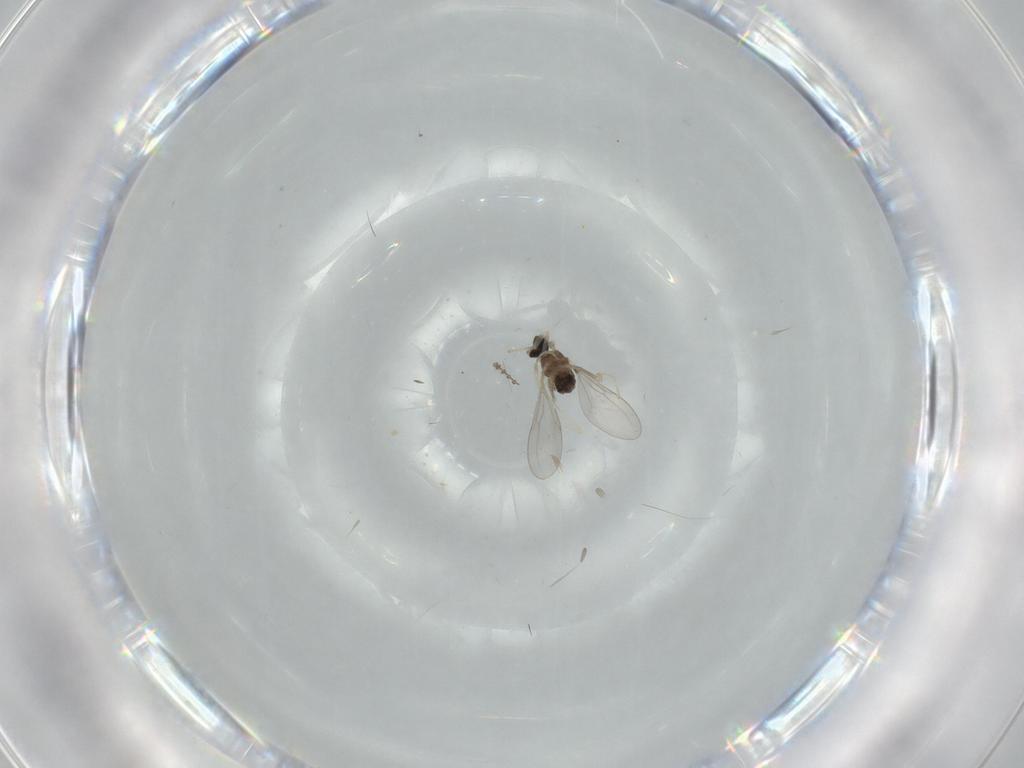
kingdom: Animalia
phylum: Arthropoda
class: Insecta
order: Diptera
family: Cecidomyiidae
